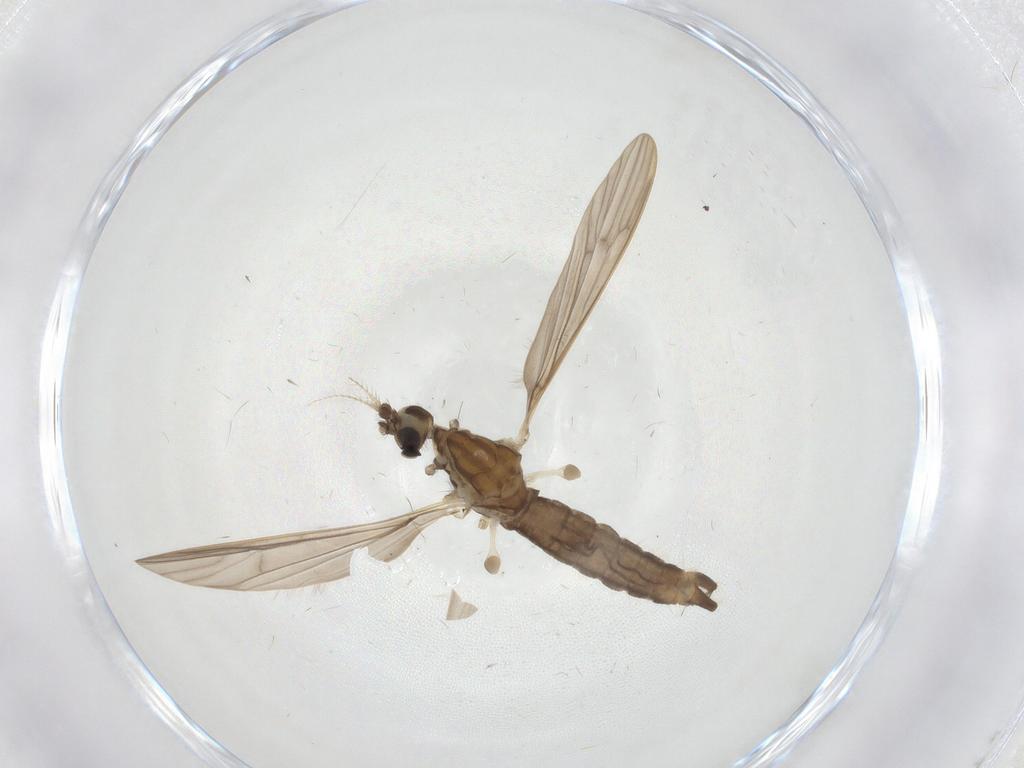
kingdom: Animalia
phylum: Arthropoda
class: Insecta
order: Diptera
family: Limoniidae
